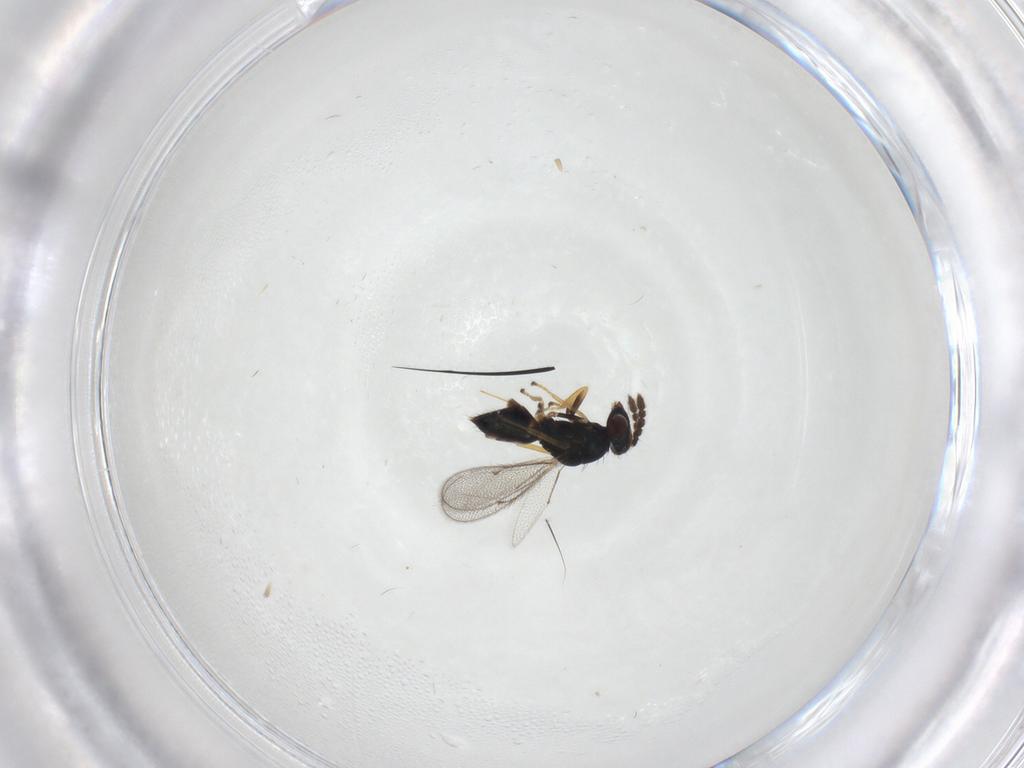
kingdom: Animalia
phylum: Arthropoda
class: Insecta
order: Hymenoptera
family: Eulophidae
